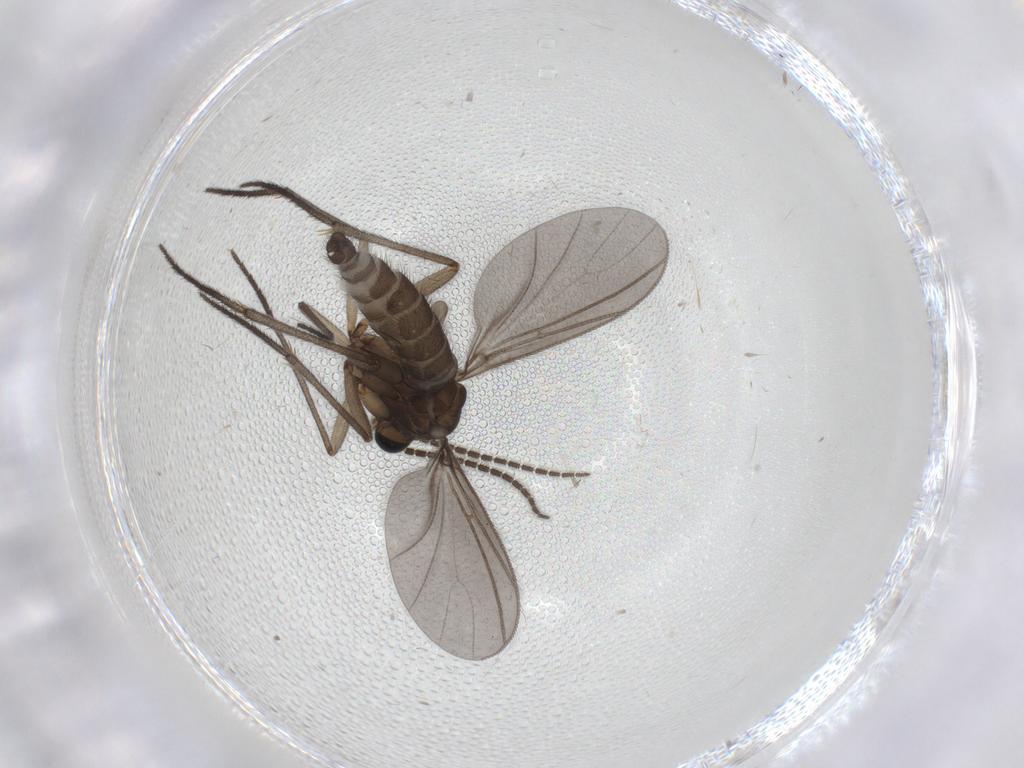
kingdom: Animalia
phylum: Arthropoda
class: Insecta
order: Diptera
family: Sciaridae
